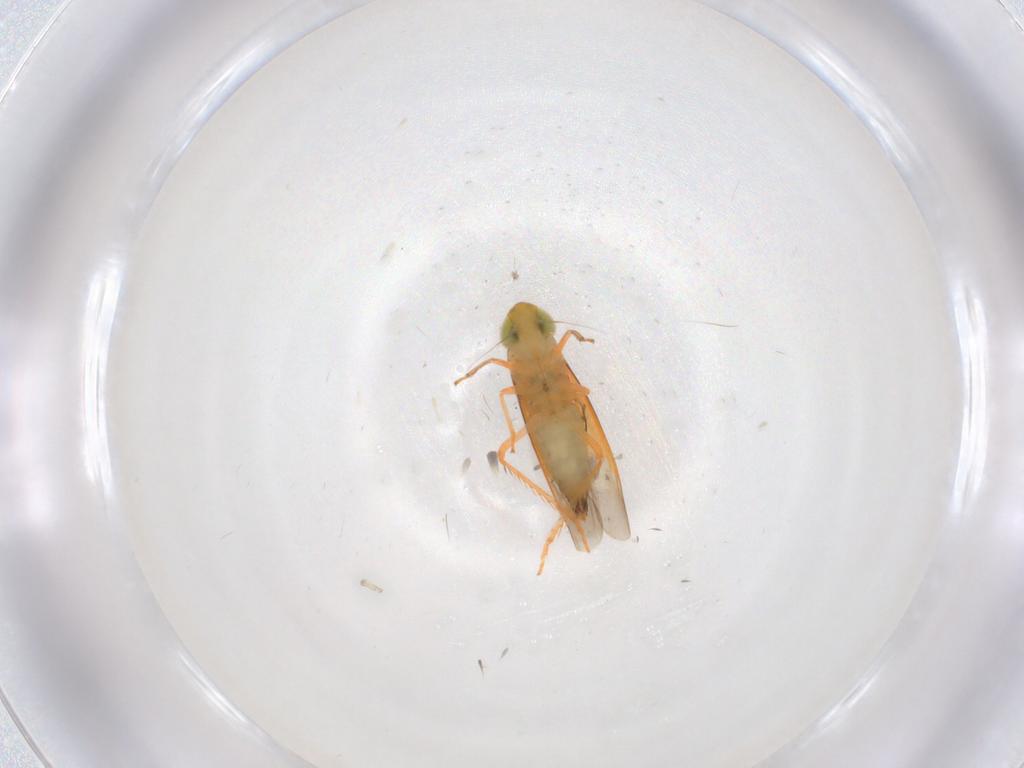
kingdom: Animalia
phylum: Arthropoda
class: Insecta
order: Hemiptera
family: Cicadellidae
